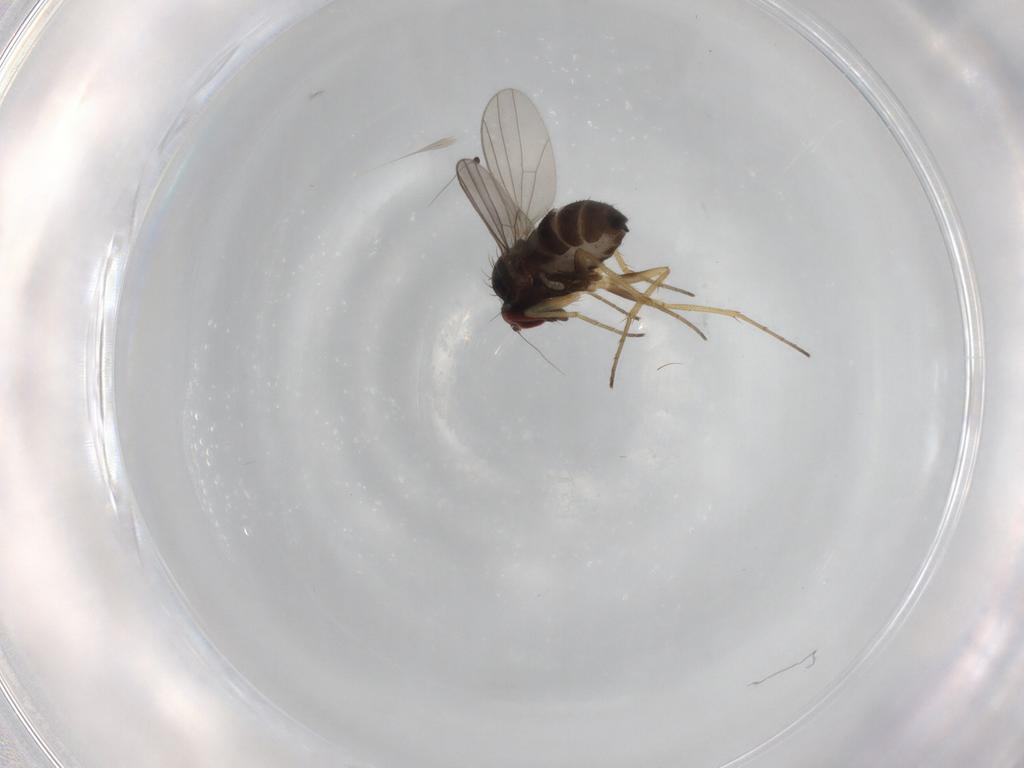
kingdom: Animalia
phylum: Arthropoda
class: Insecta
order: Diptera
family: Dolichopodidae
